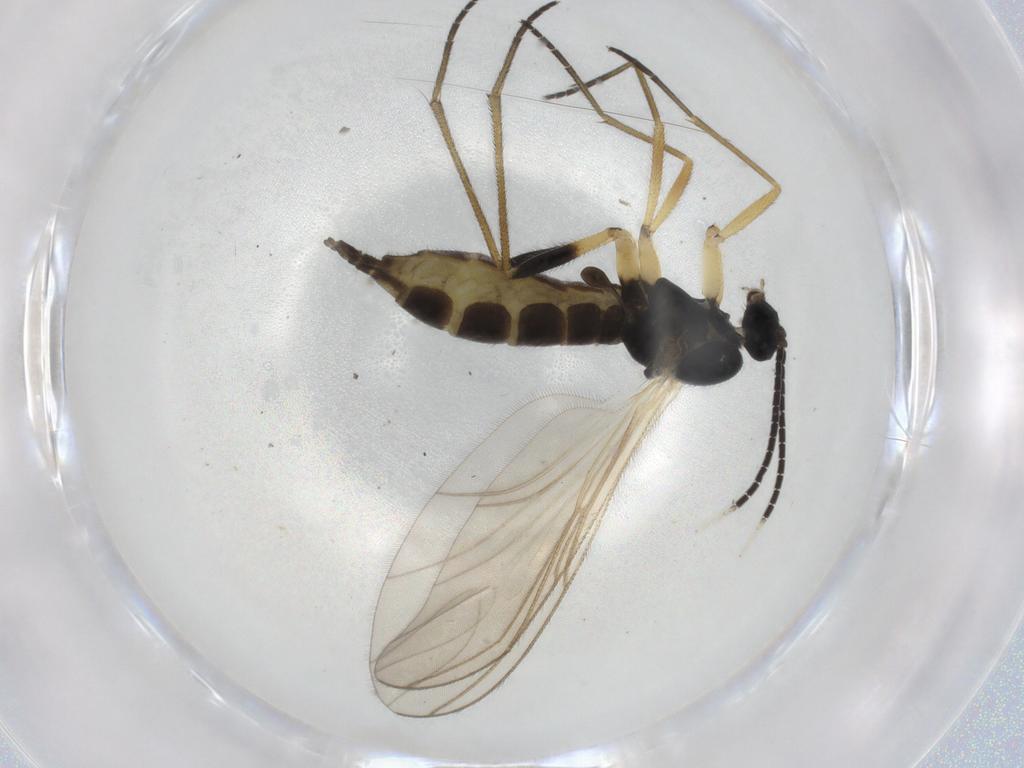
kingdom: Animalia
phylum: Arthropoda
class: Insecta
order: Diptera
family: Sciaridae
